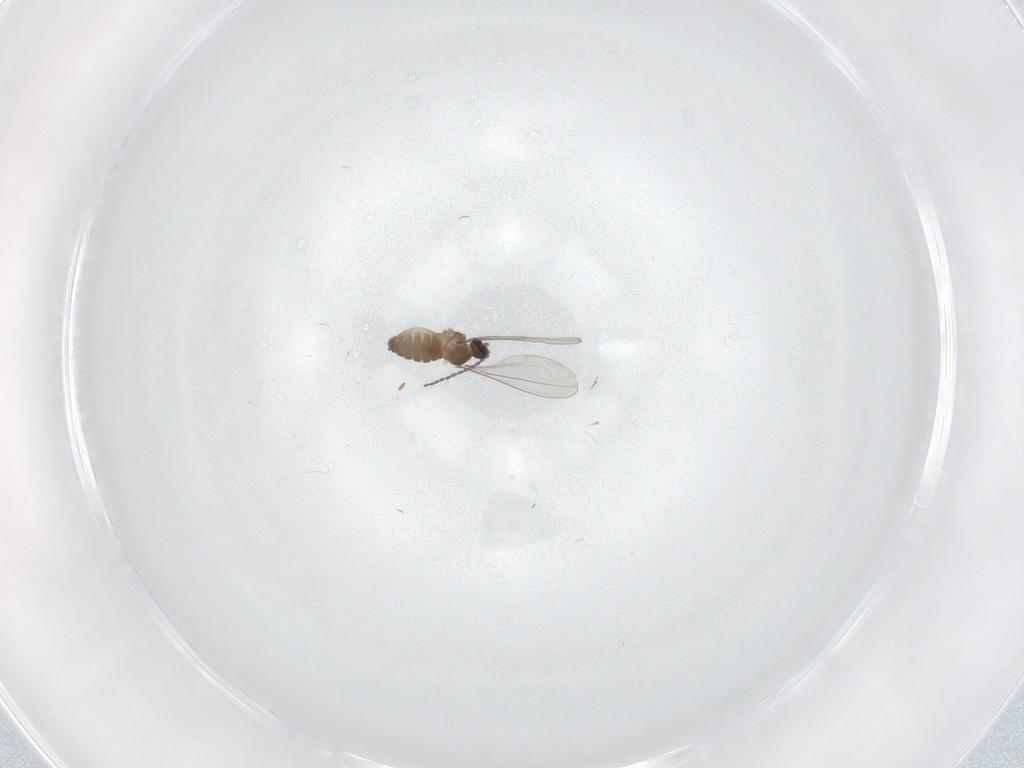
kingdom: Animalia
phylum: Arthropoda
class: Insecta
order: Diptera
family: Cecidomyiidae
